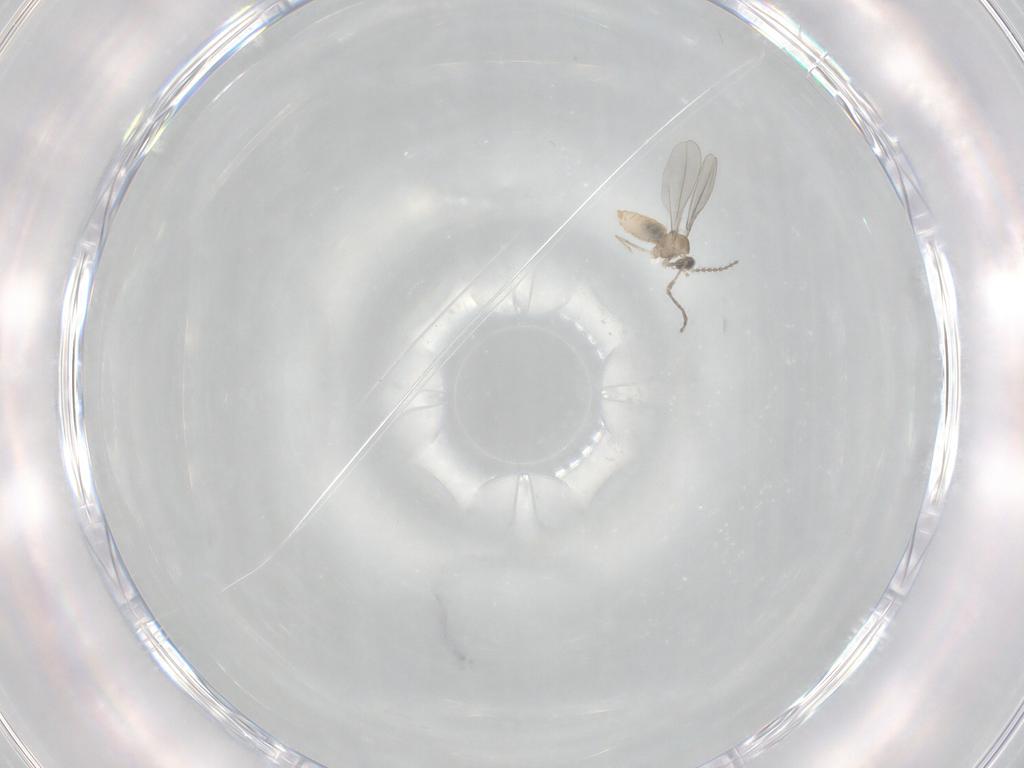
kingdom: Animalia
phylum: Arthropoda
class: Insecta
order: Diptera
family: Cecidomyiidae
